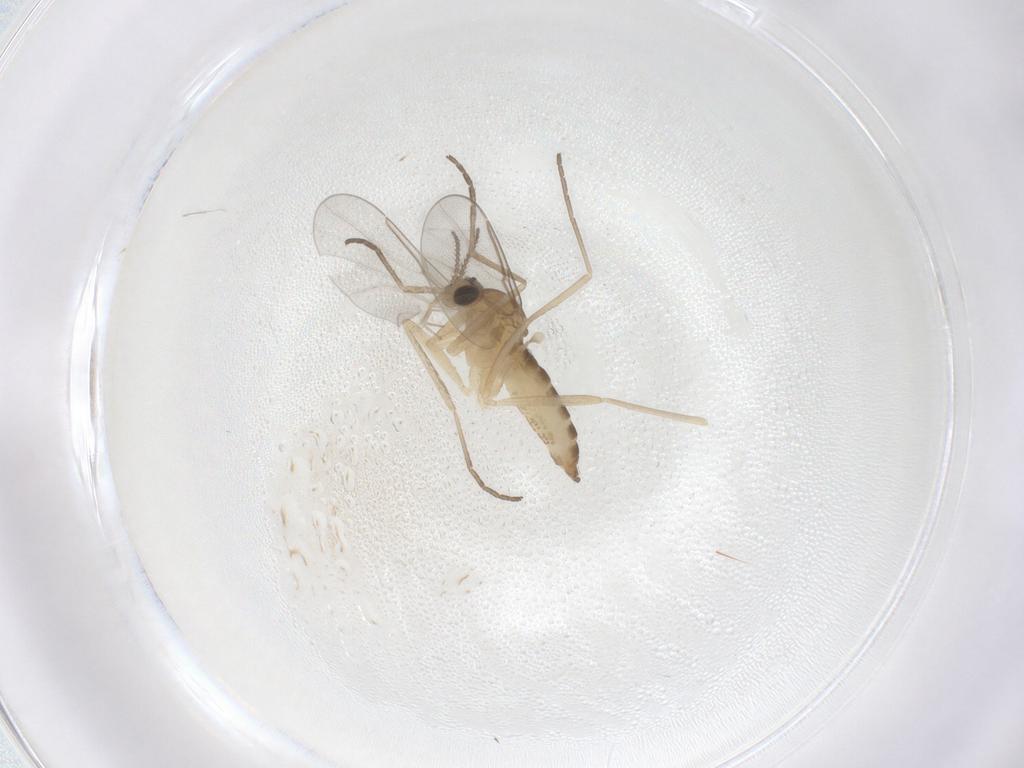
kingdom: Animalia
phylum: Arthropoda
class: Insecta
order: Diptera
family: Cecidomyiidae
